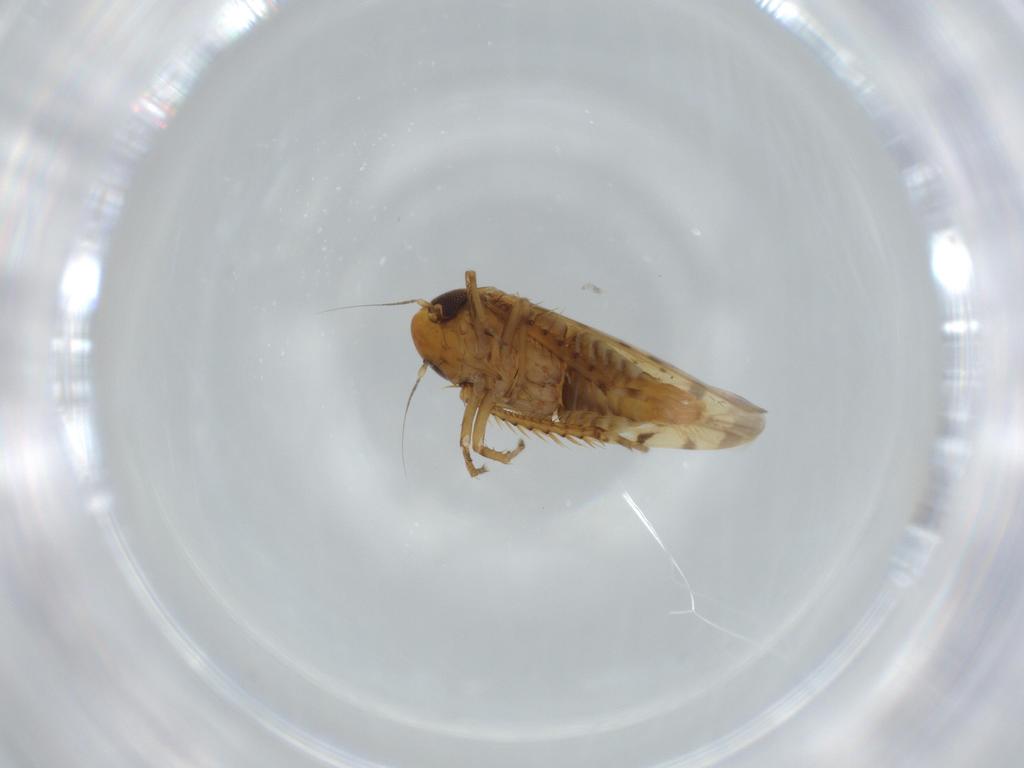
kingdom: Animalia
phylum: Arthropoda
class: Insecta
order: Hemiptera
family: Cicadellidae
